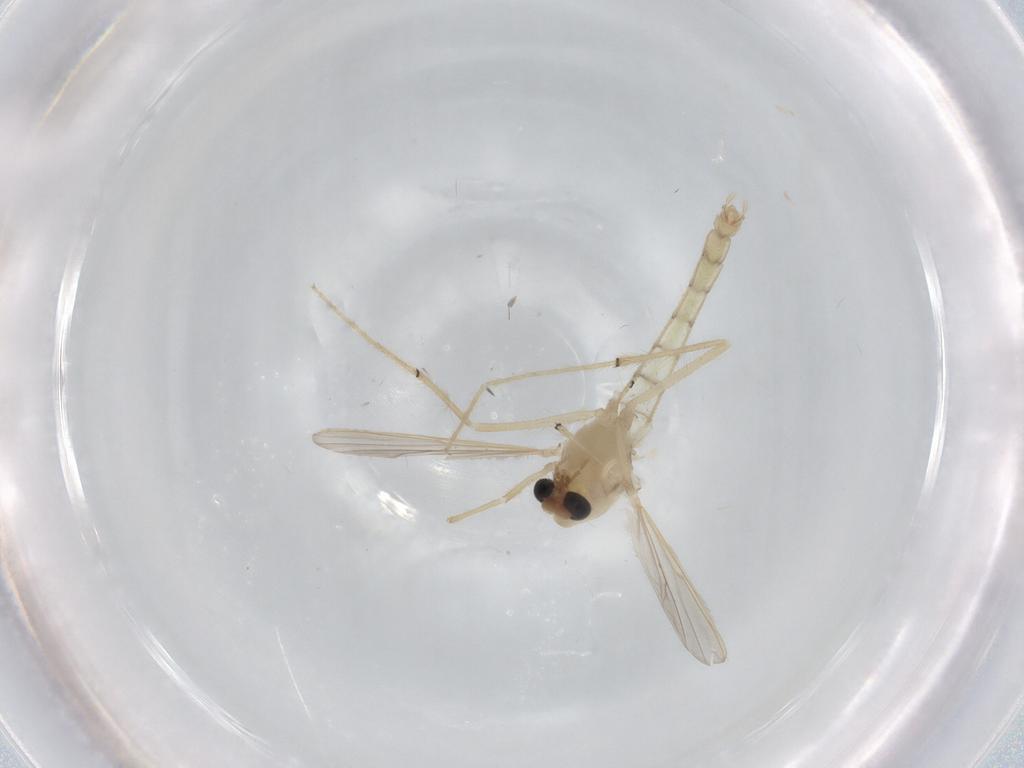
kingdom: Animalia
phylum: Arthropoda
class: Insecta
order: Diptera
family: Chironomidae
